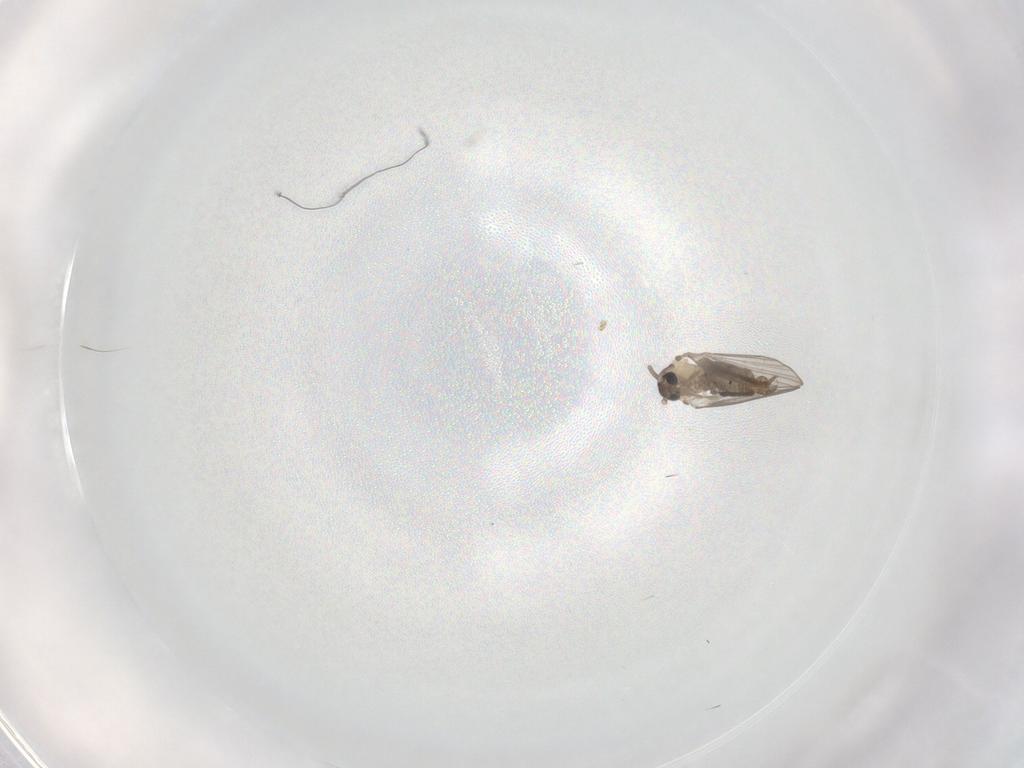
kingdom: Animalia
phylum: Arthropoda
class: Insecta
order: Diptera
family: Psychodidae
